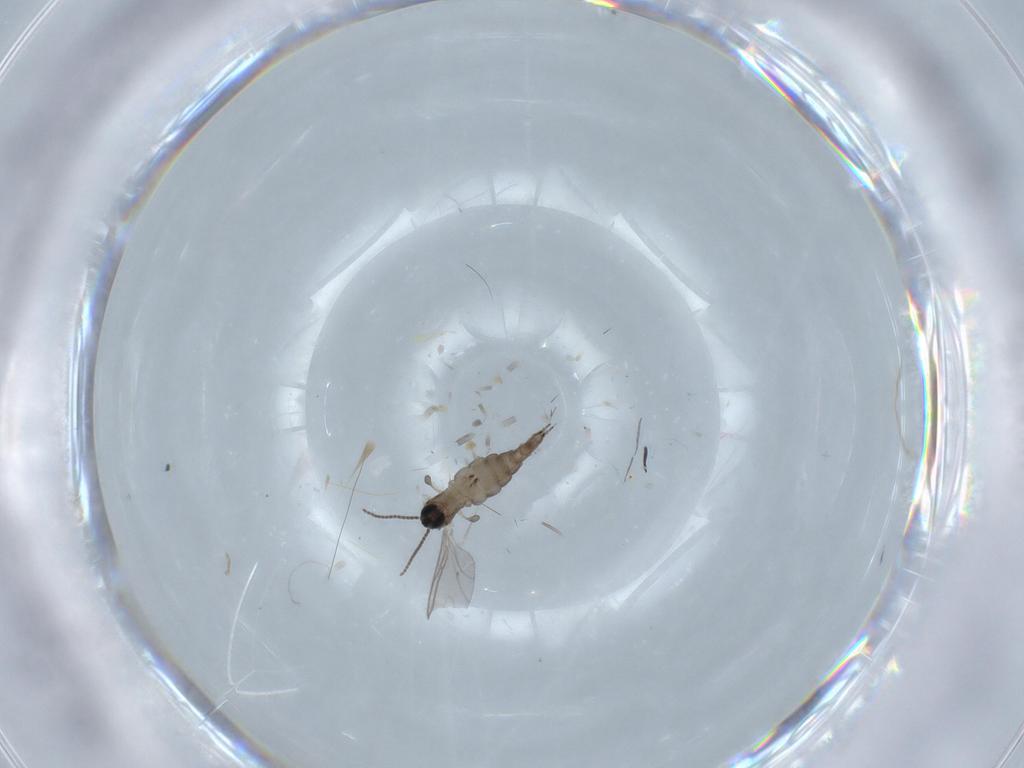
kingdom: Animalia
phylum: Arthropoda
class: Insecta
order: Diptera
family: Sciaridae
